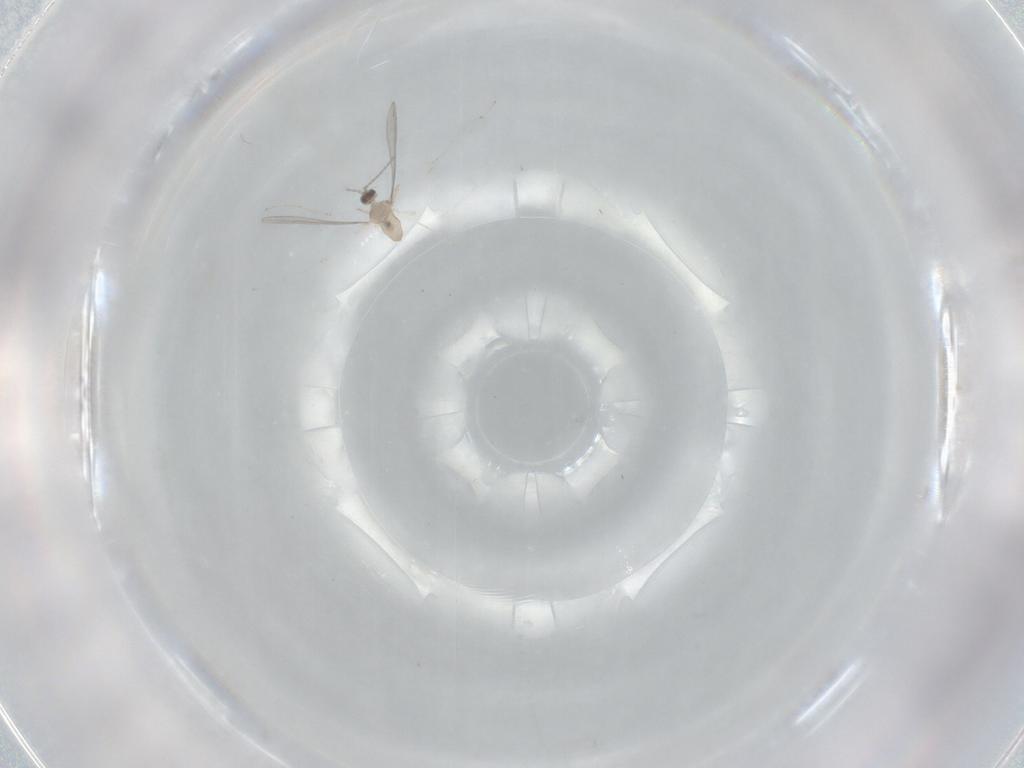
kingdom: Animalia
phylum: Arthropoda
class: Insecta
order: Diptera
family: Cecidomyiidae
